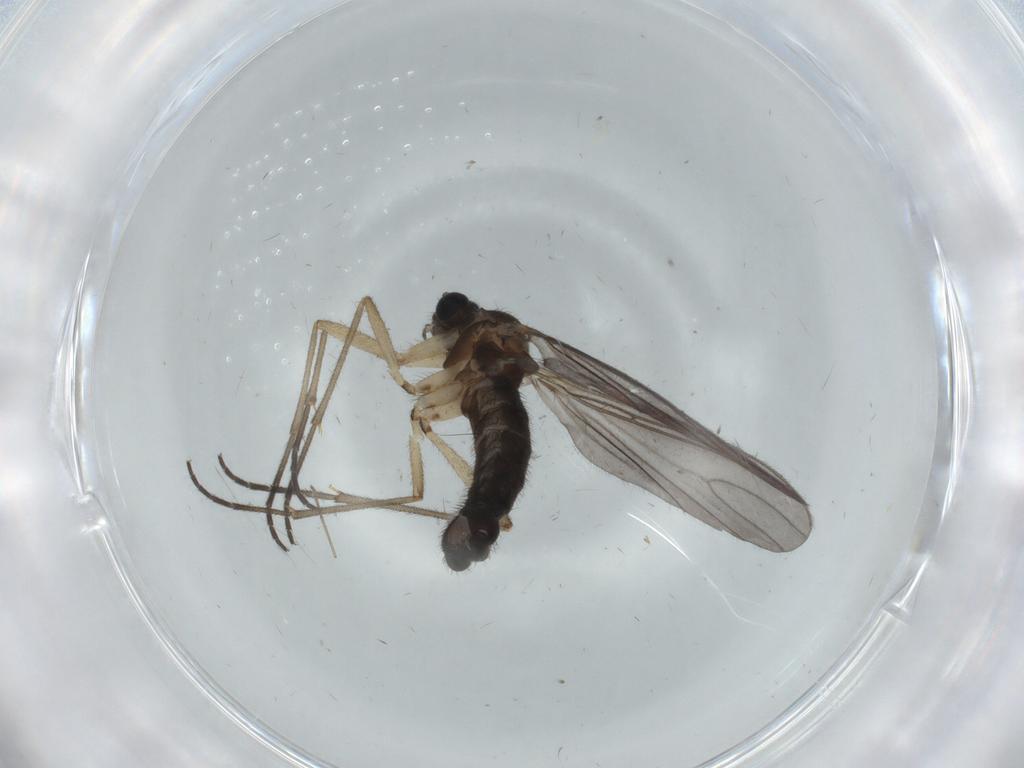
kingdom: Animalia
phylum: Arthropoda
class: Insecta
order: Diptera
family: Sciaridae
